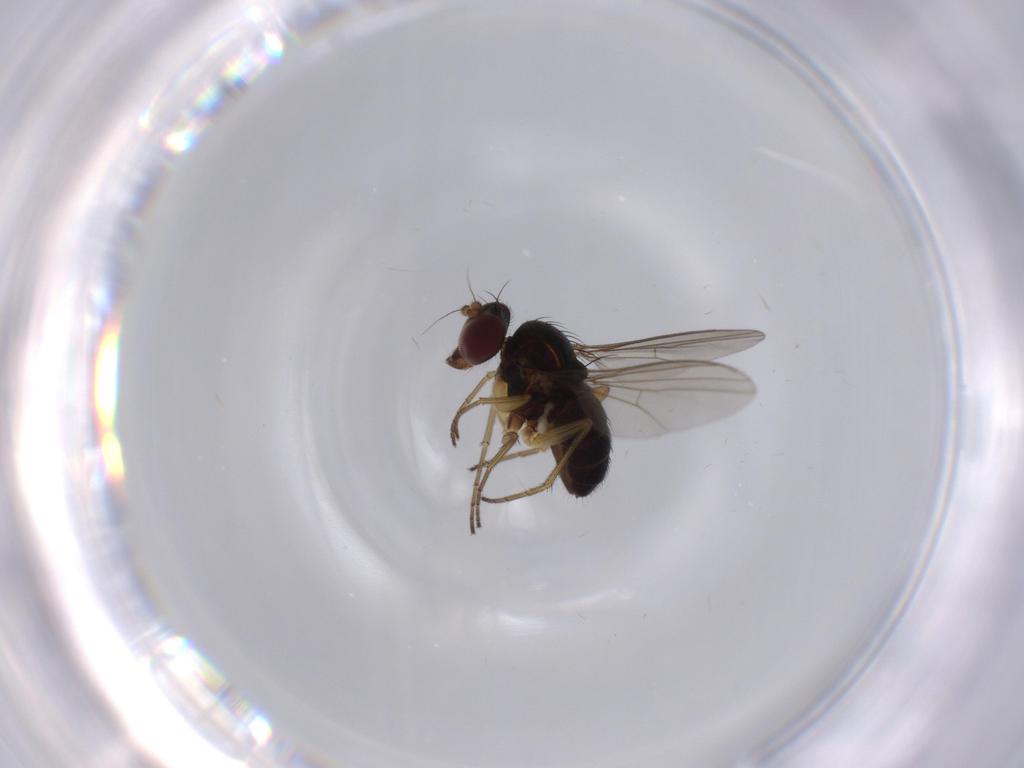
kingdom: Animalia
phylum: Arthropoda
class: Insecta
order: Diptera
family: Dolichopodidae
